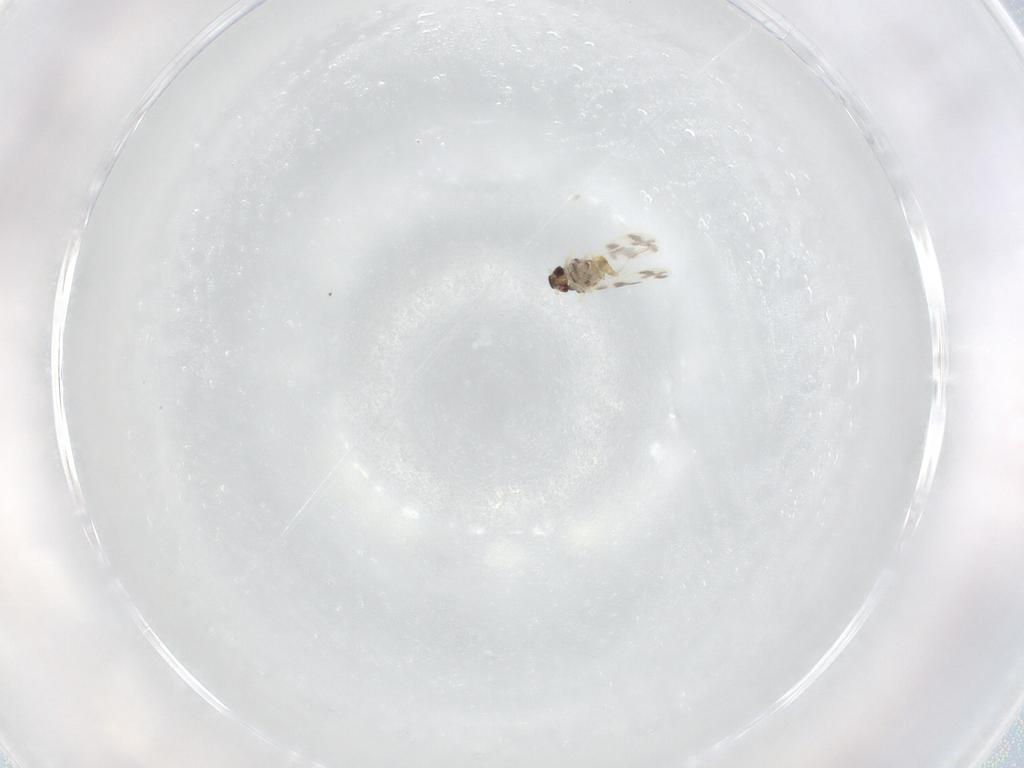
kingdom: Animalia
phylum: Arthropoda
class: Insecta
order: Hemiptera
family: Aleyrodidae
